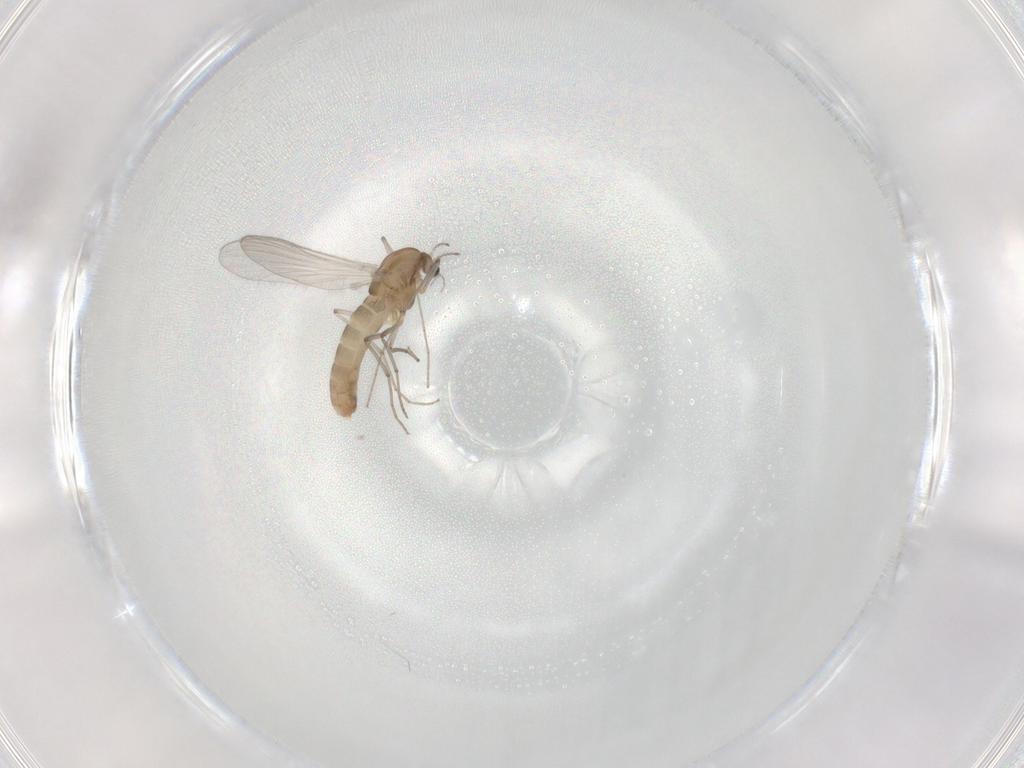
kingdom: Animalia
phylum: Arthropoda
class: Insecta
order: Diptera
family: Chironomidae
